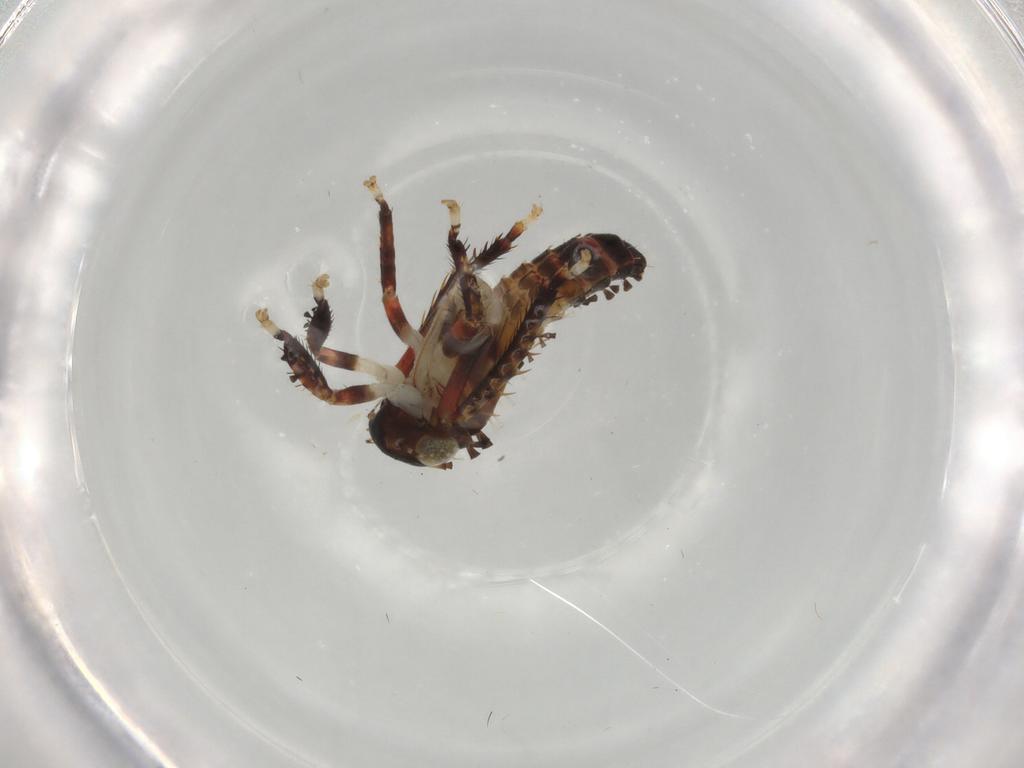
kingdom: Animalia
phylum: Arthropoda
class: Insecta
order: Hemiptera
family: Cicadellidae
